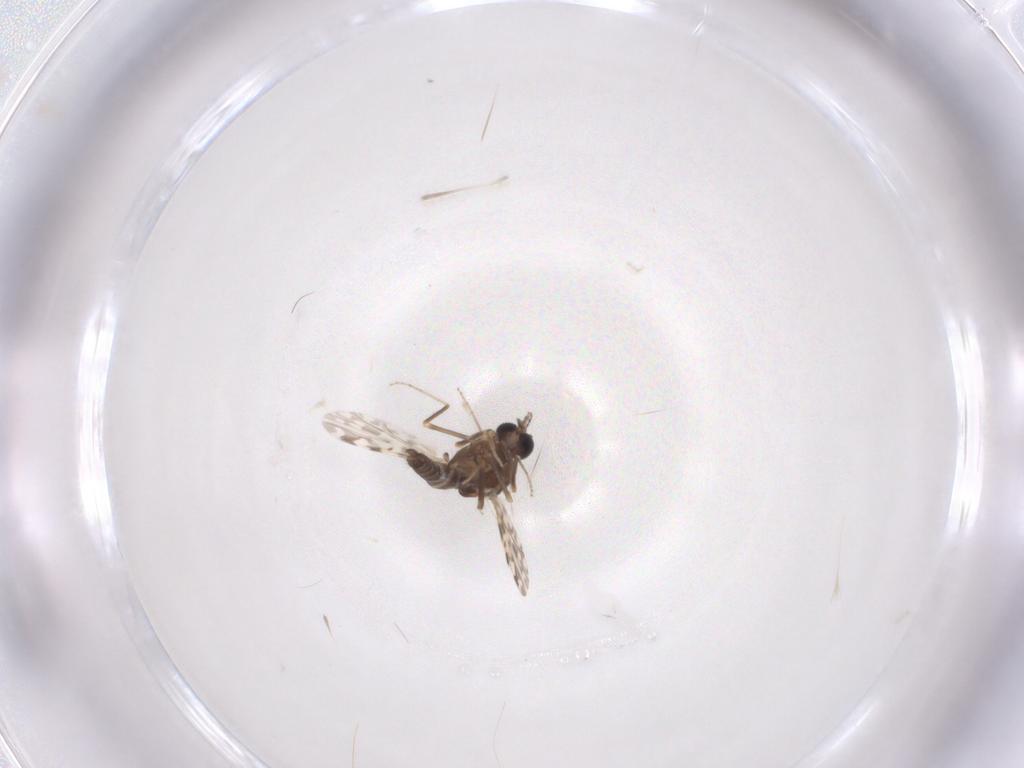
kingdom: Animalia
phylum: Arthropoda
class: Insecta
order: Diptera
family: Ceratopogonidae
